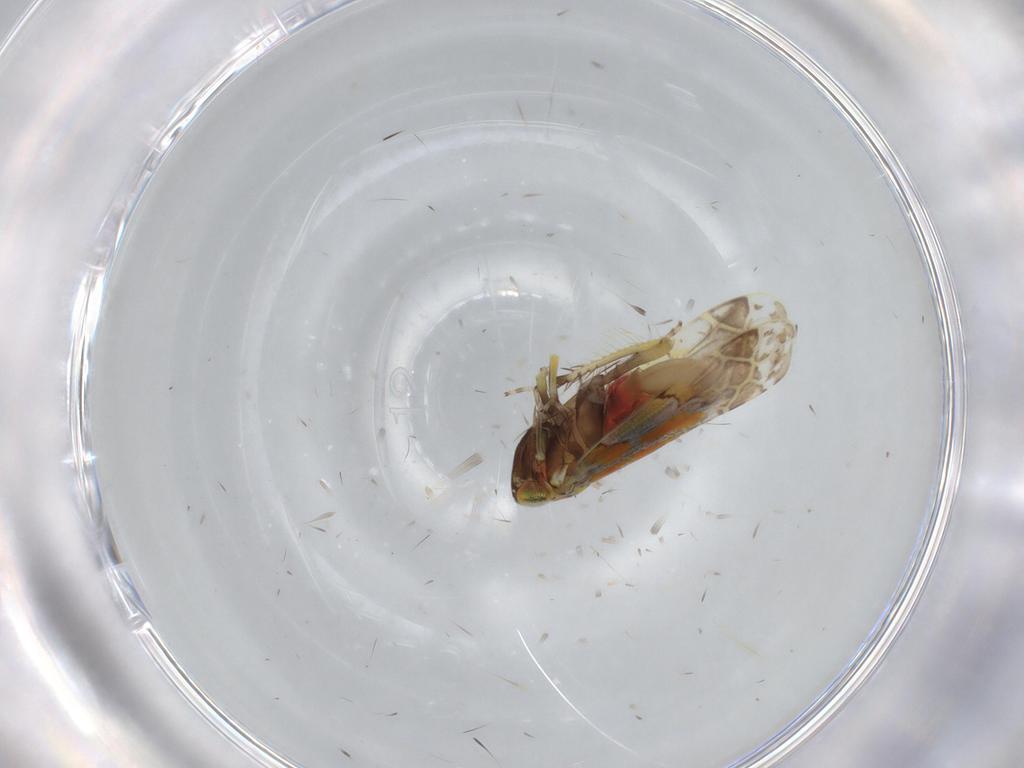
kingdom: Animalia
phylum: Arthropoda
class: Insecta
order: Hemiptera
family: Cicadellidae
